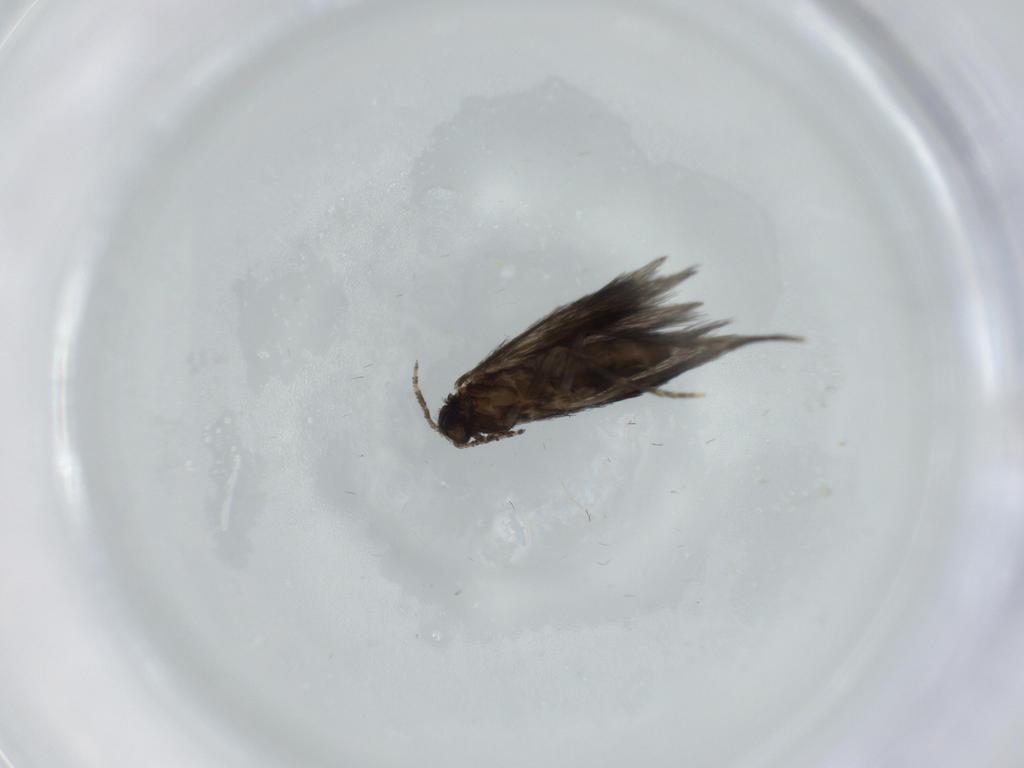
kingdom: Animalia
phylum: Arthropoda
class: Insecta
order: Trichoptera
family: Hydroptilidae
